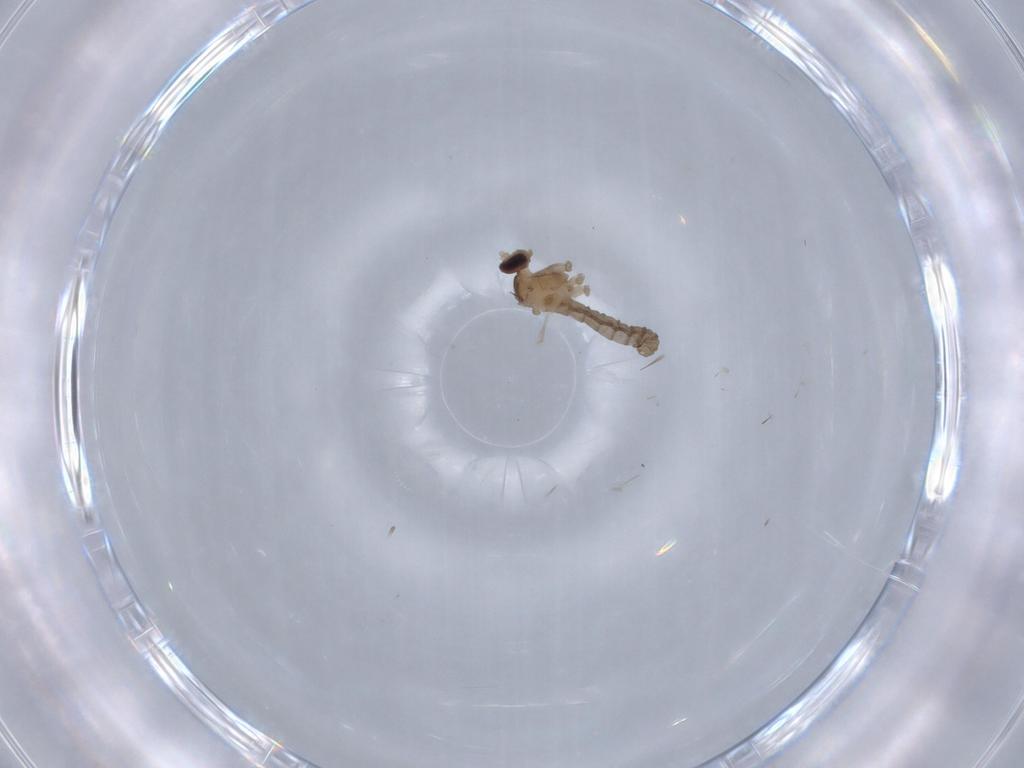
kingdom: Animalia
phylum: Arthropoda
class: Insecta
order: Diptera
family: Cecidomyiidae
